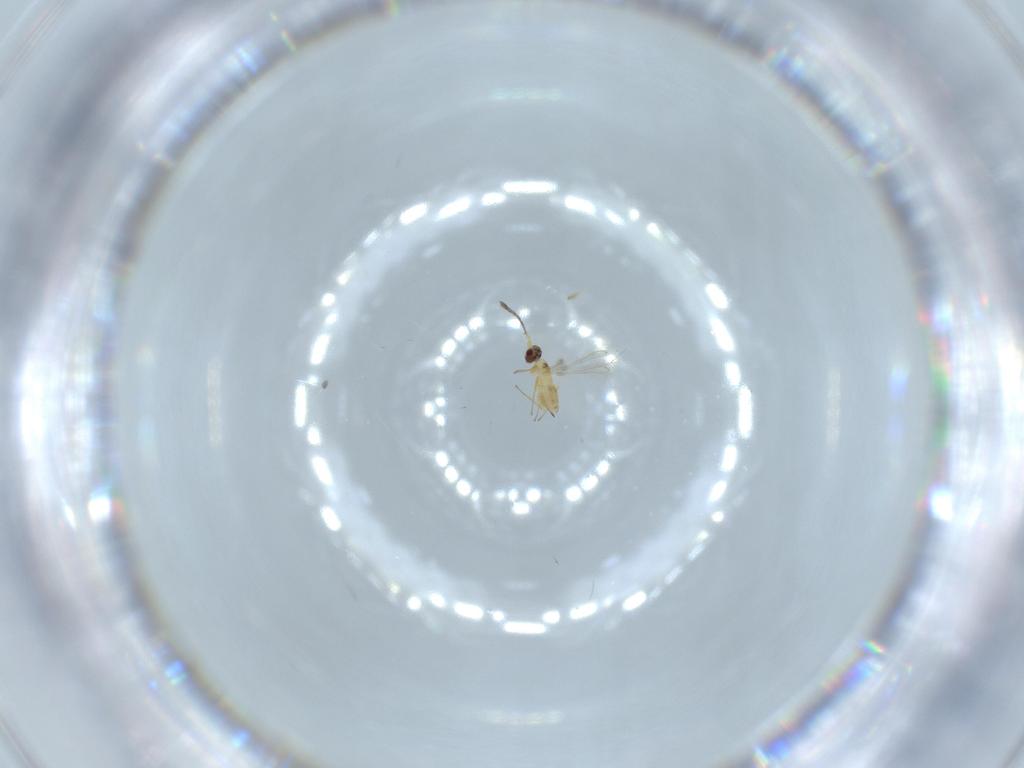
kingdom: Animalia
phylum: Arthropoda
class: Insecta
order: Hymenoptera
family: Mymaridae
